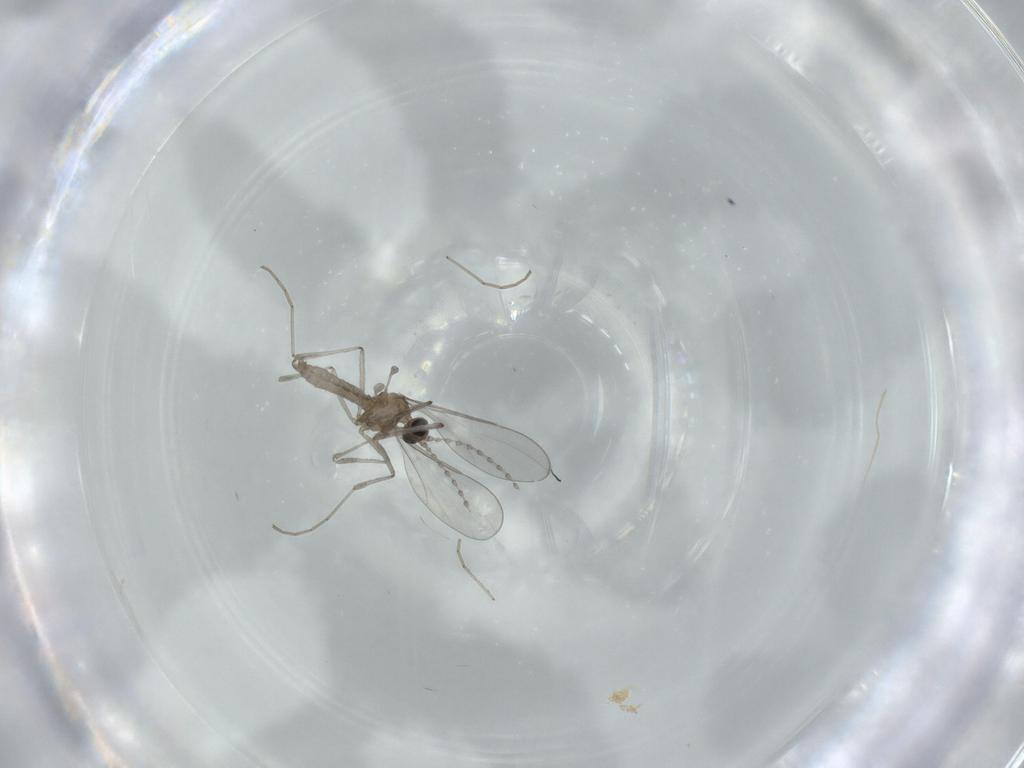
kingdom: Animalia
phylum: Arthropoda
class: Insecta
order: Diptera
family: Cecidomyiidae
